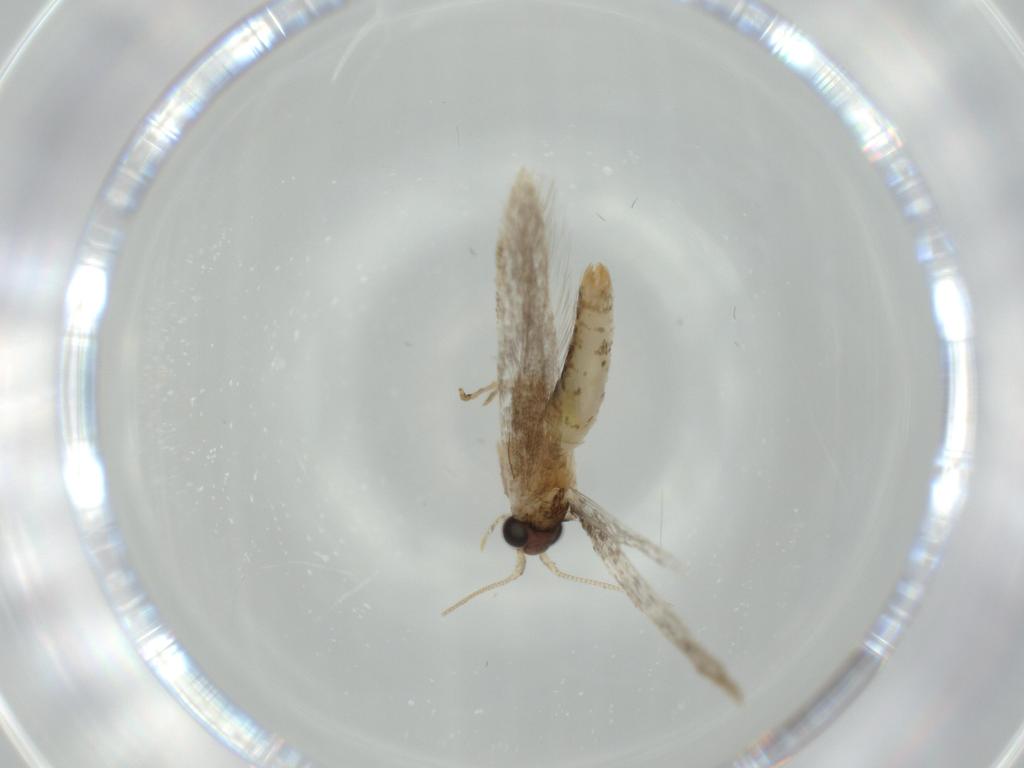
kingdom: Animalia
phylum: Arthropoda
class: Insecta
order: Lepidoptera
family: Tineidae
